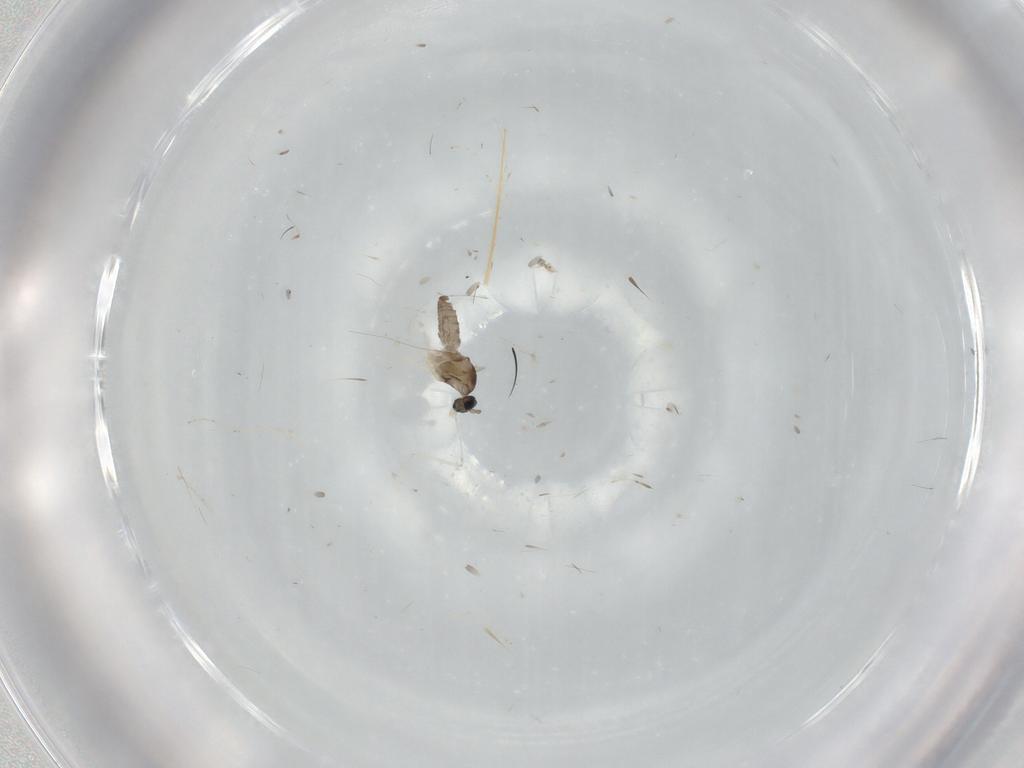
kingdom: Animalia
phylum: Arthropoda
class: Insecta
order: Diptera
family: Cecidomyiidae
